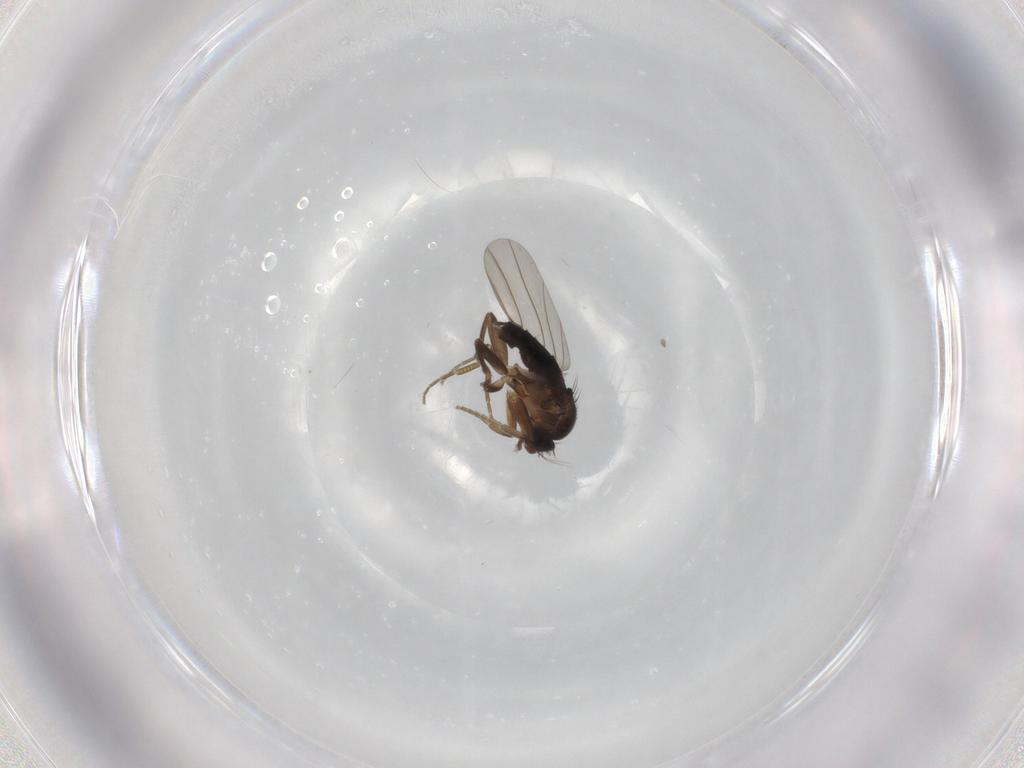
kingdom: Animalia
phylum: Arthropoda
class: Insecta
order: Diptera
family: Phoridae
